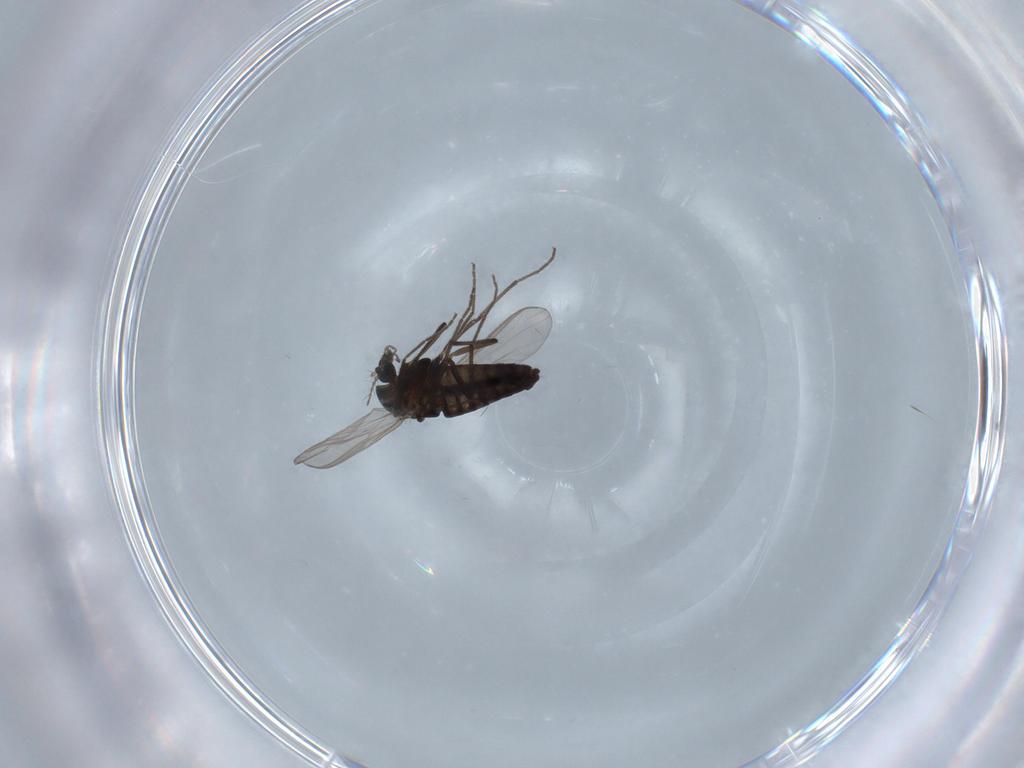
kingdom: Animalia
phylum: Arthropoda
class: Insecta
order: Diptera
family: Chironomidae
